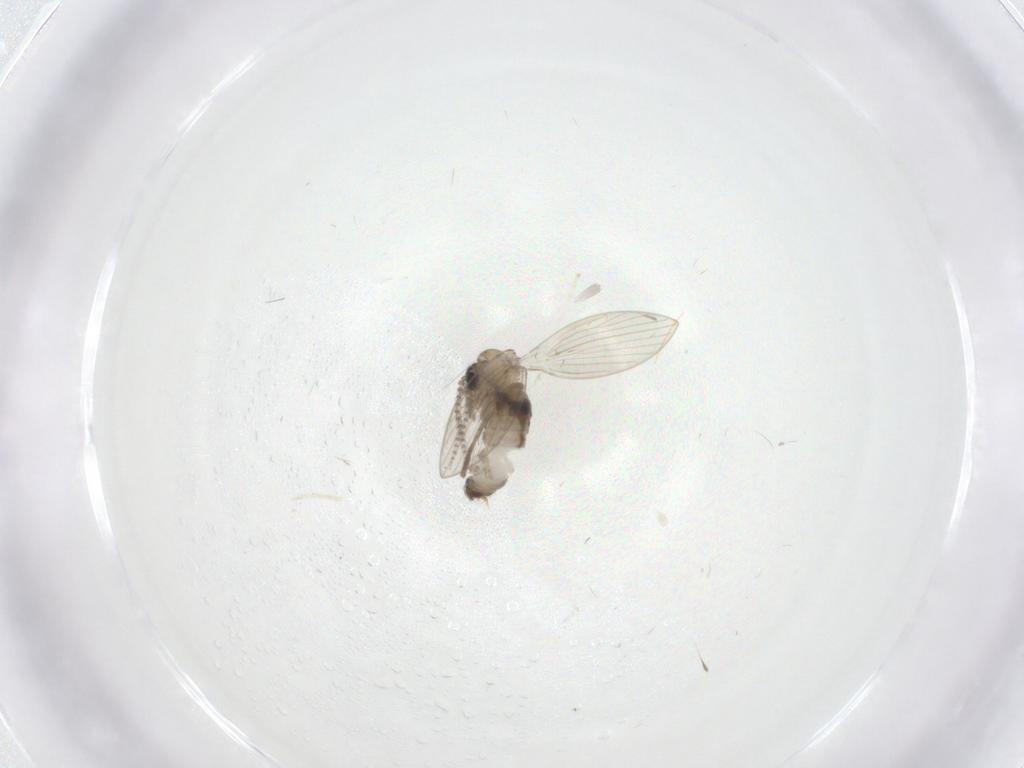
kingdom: Animalia
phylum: Arthropoda
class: Insecta
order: Diptera
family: Psychodidae
